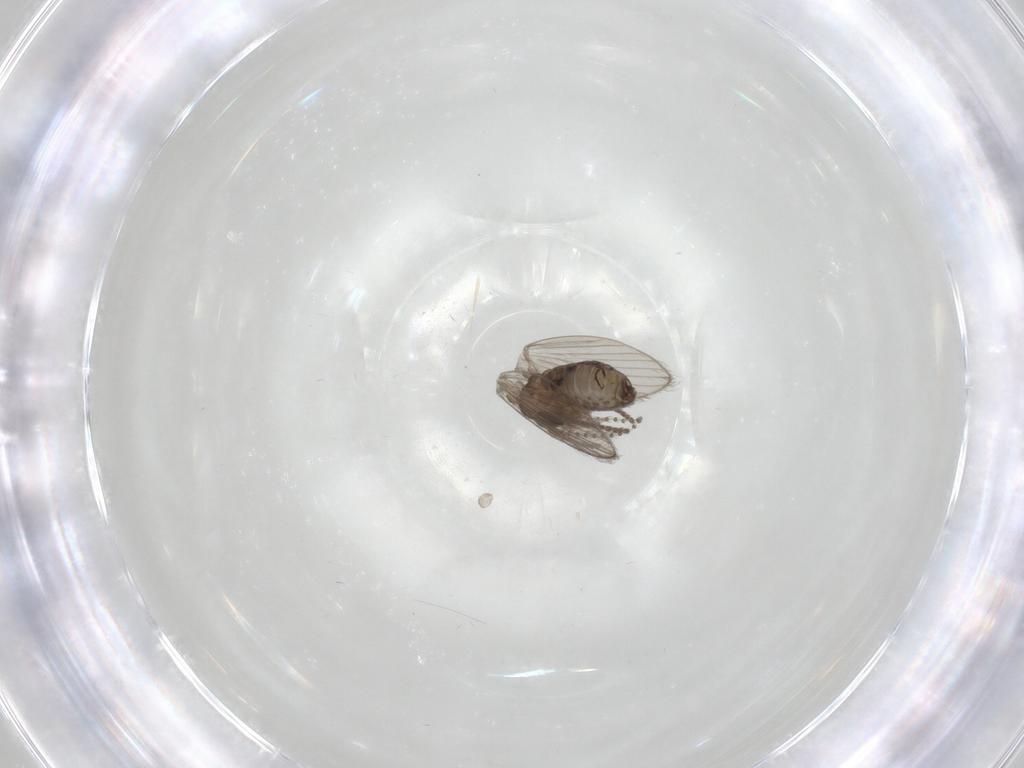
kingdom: Animalia
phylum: Arthropoda
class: Insecta
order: Diptera
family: Psychodidae
